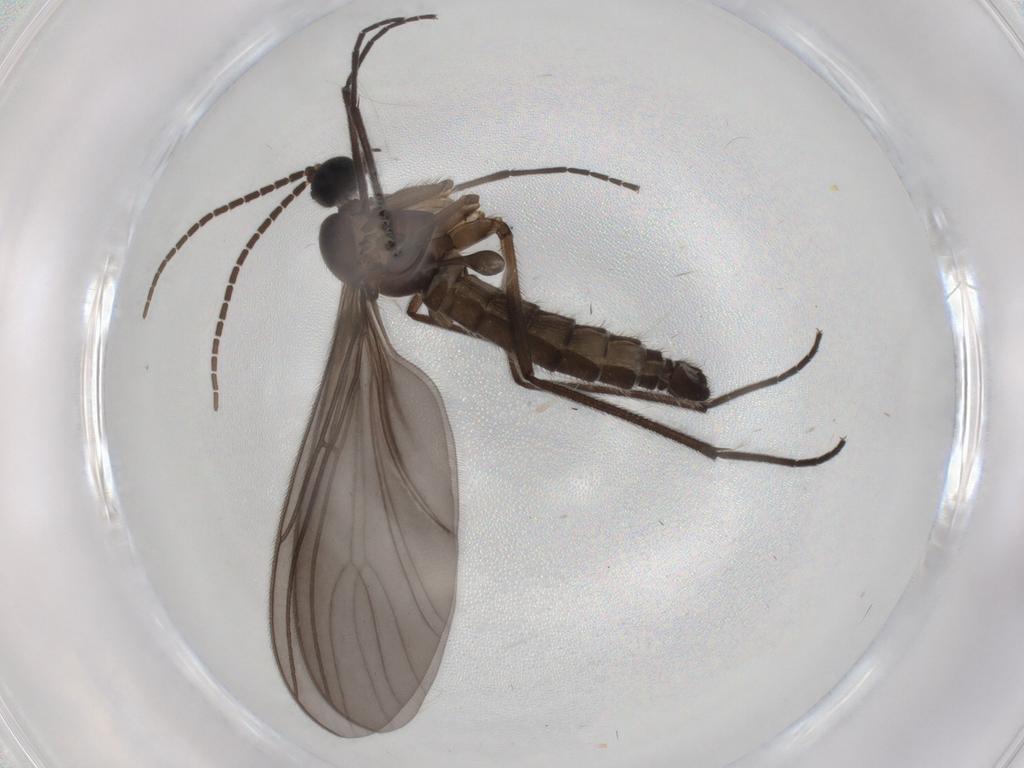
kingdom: Animalia
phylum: Arthropoda
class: Insecta
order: Diptera
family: Sciaridae
